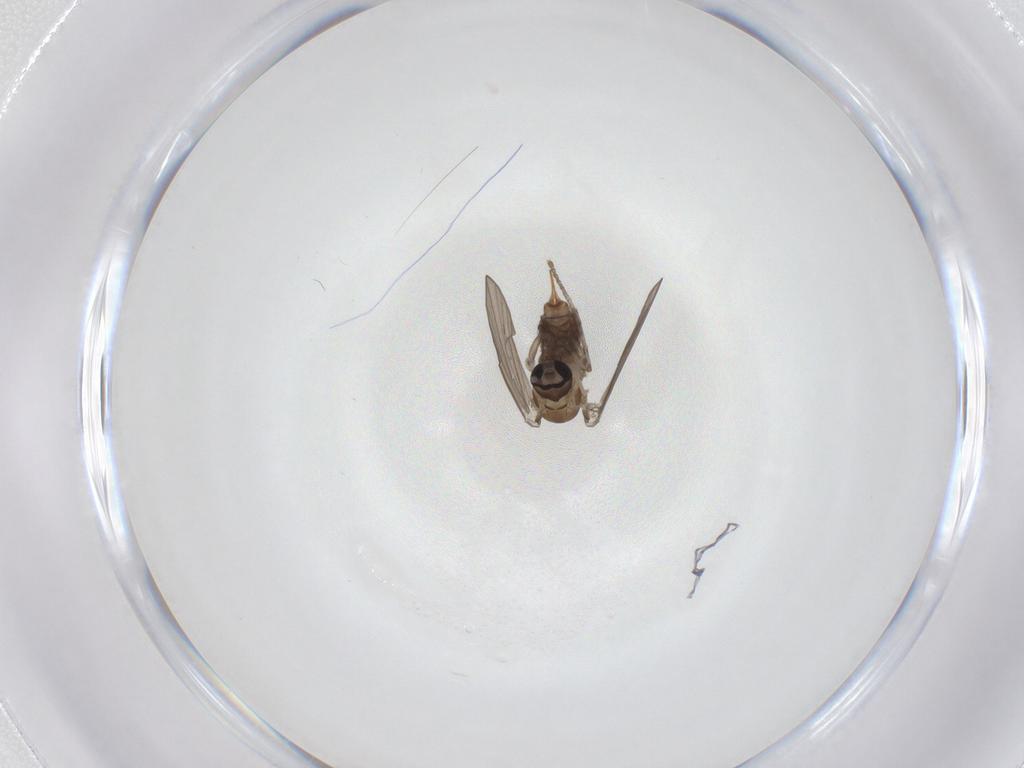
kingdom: Animalia
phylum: Arthropoda
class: Insecta
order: Diptera
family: Psychodidae
